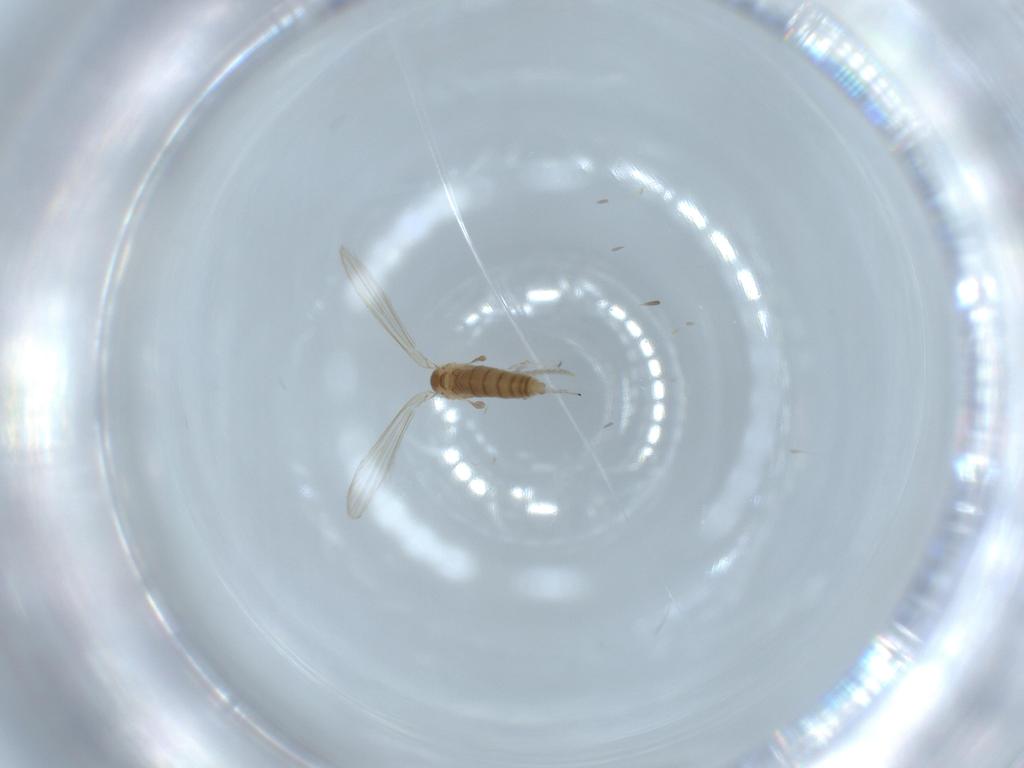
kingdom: Animalia
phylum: Arthropoda
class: Insecta
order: Diptera
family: Psychodidae
